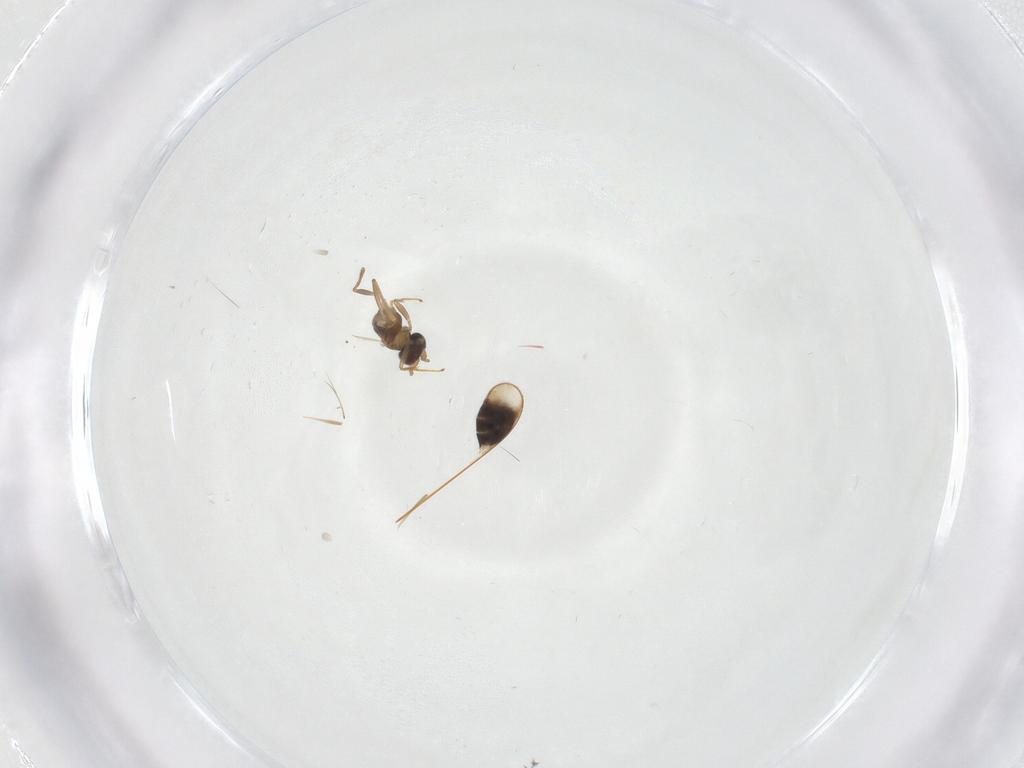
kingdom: Animalia
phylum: Arthropoda
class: Insecta
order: Hymenoptera
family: Mymaridae
